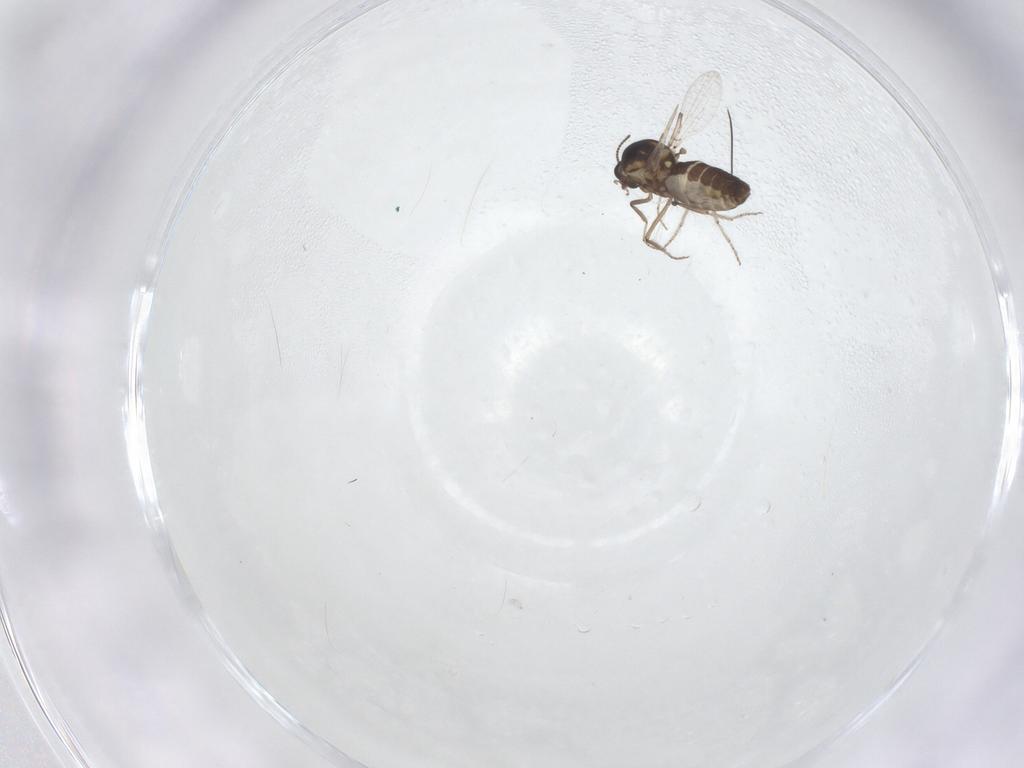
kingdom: Animalia
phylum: Arthropoda
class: Insecta
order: Diptera
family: Ceratopogonidae
